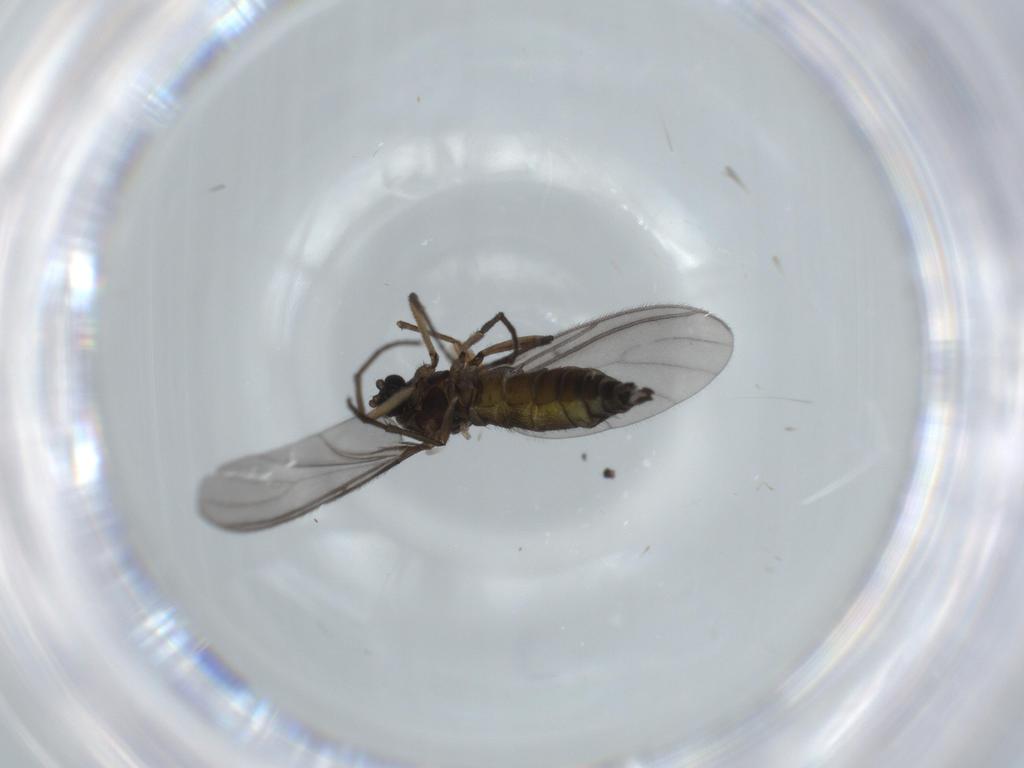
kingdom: Animalia
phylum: Arthropoda
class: Insecta
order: Diptera
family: Sciaridae
